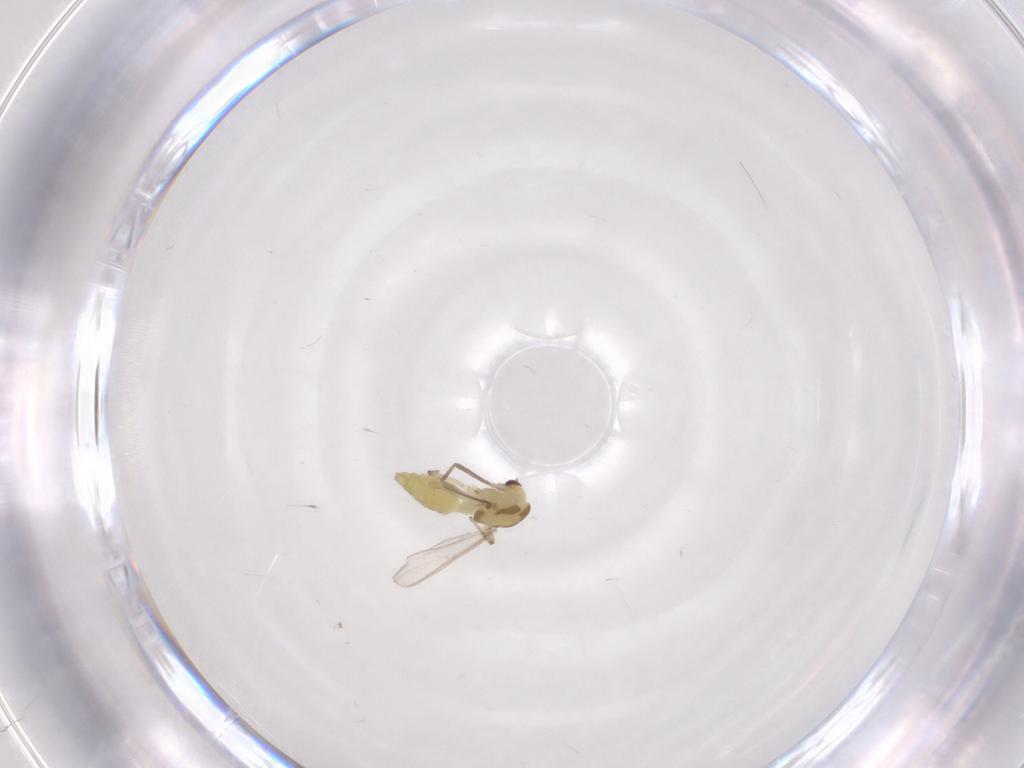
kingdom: Animalia
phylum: Arthropoda
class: Insecta
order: Diptera
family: Chironomidae
